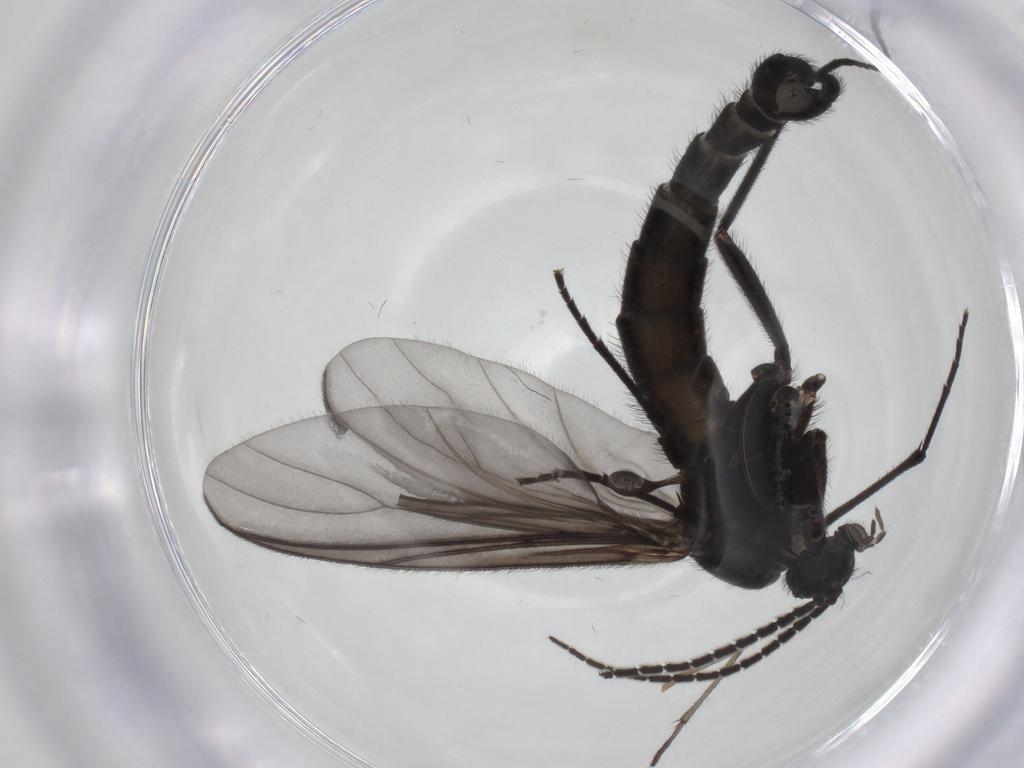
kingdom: Animalia
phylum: Arthropoda
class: Insecta
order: Diptera
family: Sciaridae
